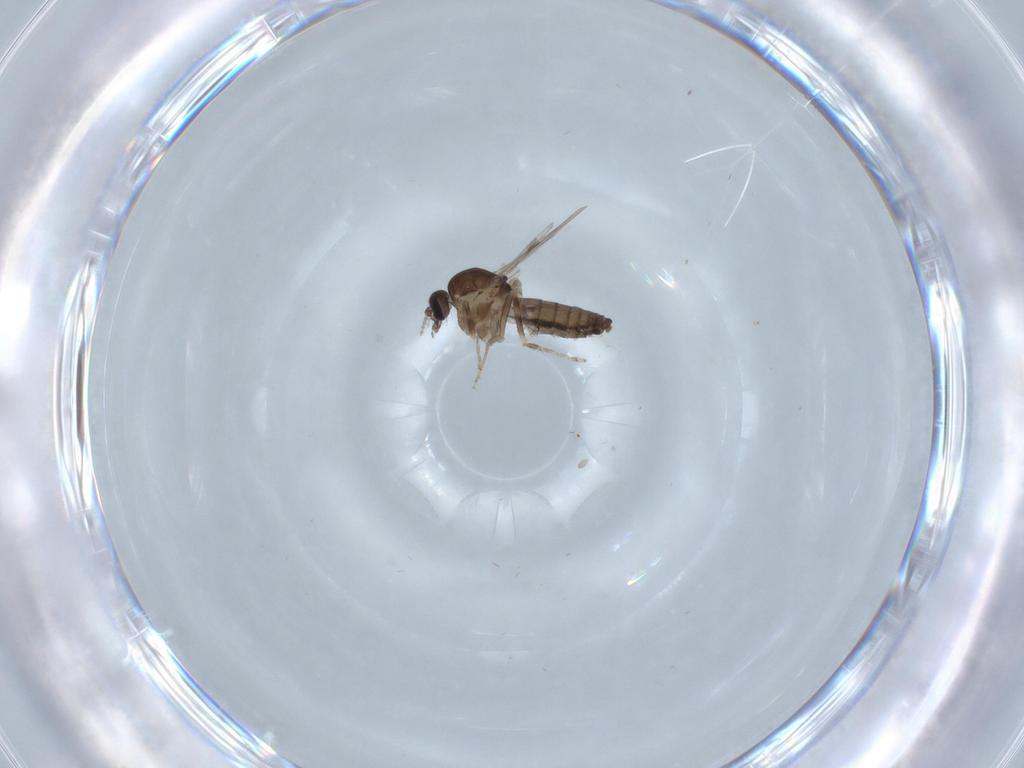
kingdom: Animalia
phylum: Arthropoda
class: Insecta
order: Diptera
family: Ceratopogonidae
